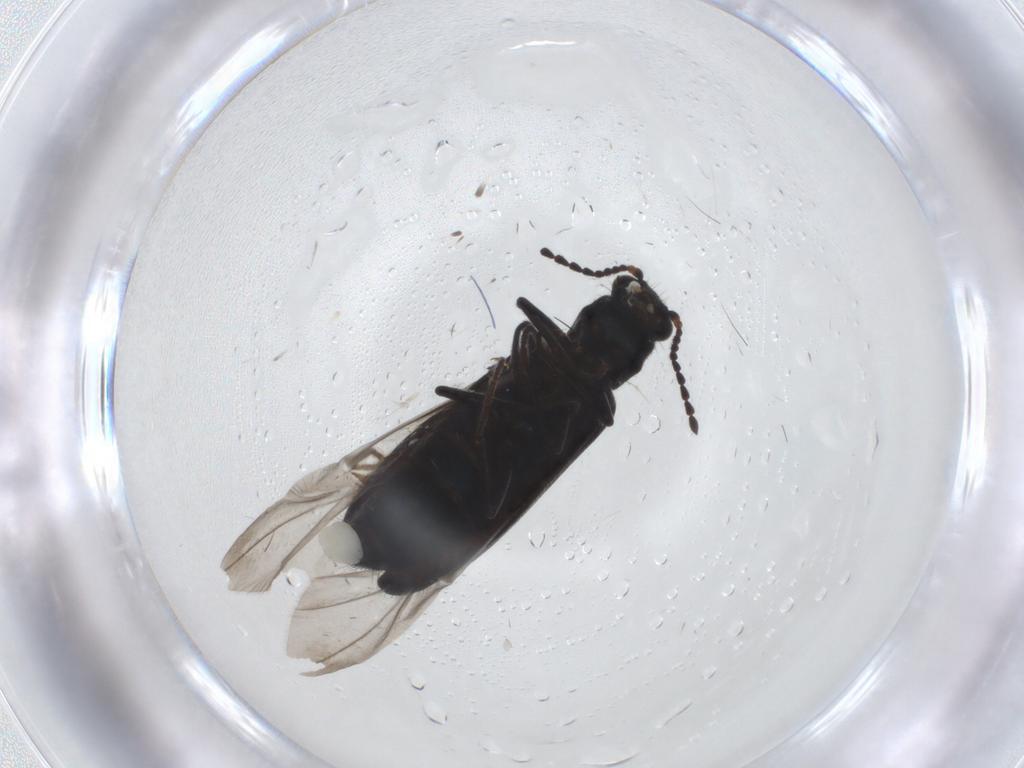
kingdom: Animalia
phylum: Arthropoda
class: Insecta
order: Coleoptera
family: Melyridae
